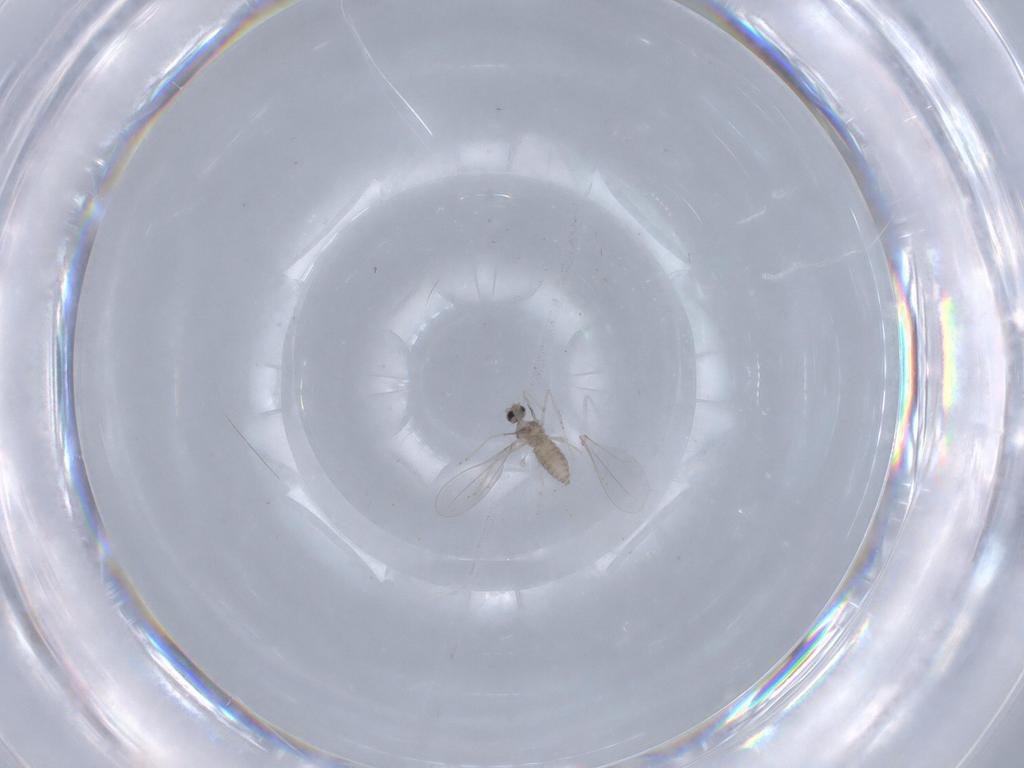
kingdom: Animalia
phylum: Arthropoda
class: Insecta
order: Diptera
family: Cecidomyiidae
